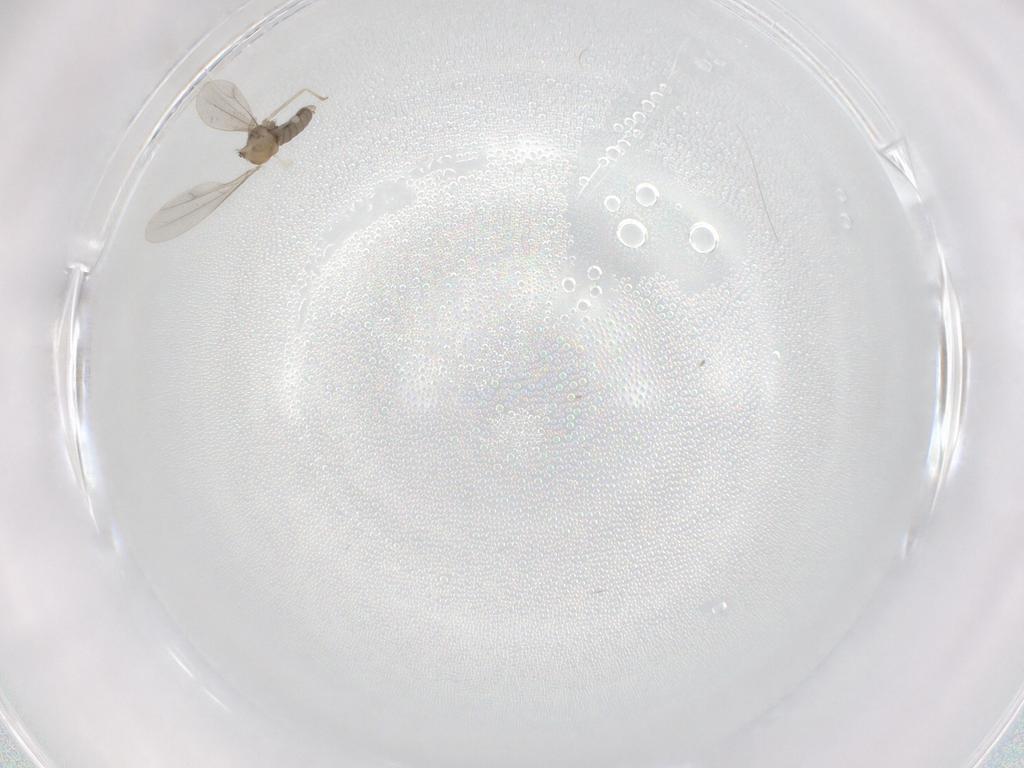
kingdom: Animalia
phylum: Arthropoda
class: Insecta
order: Diptera
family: Cecidomyiidae
